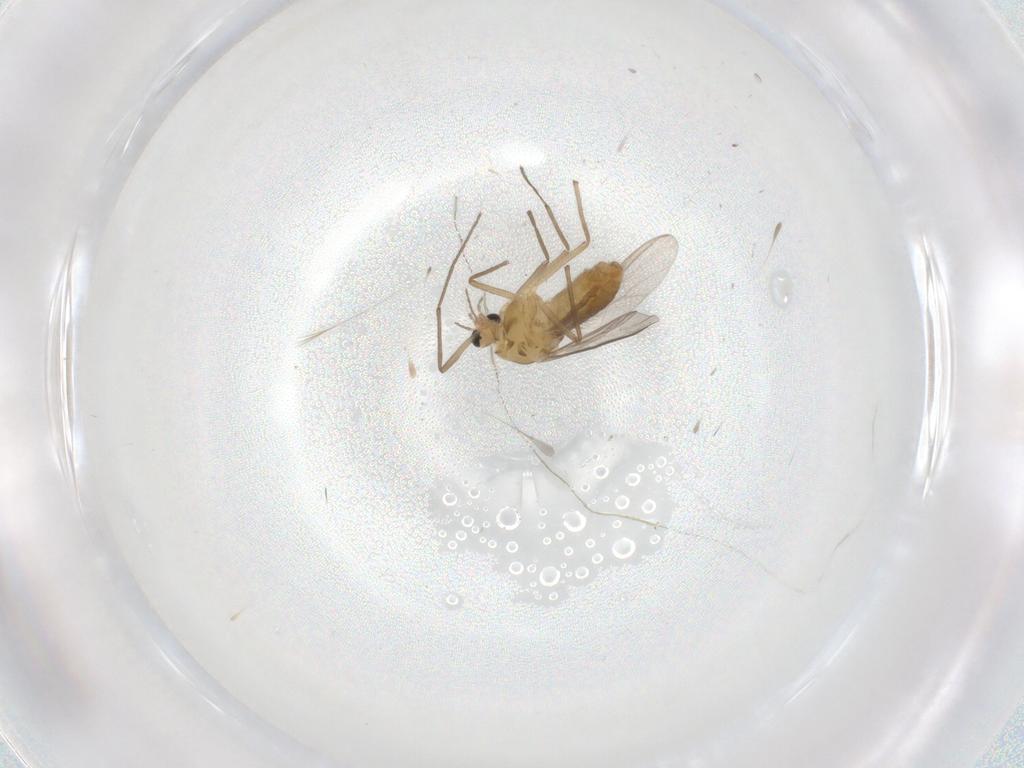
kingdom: Animalia
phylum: Arthropoda
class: Insecta
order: Diptera
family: Chironomidae
